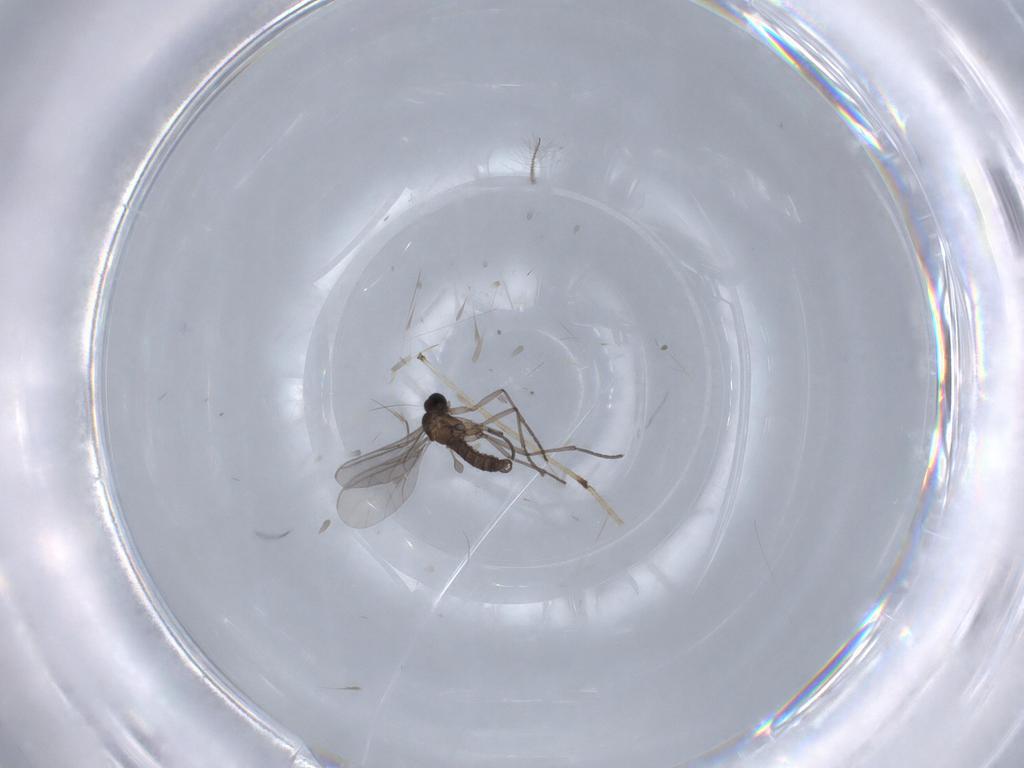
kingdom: Animalia
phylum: Arthropoda
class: Insecta
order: Diptera
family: Sciaridae
